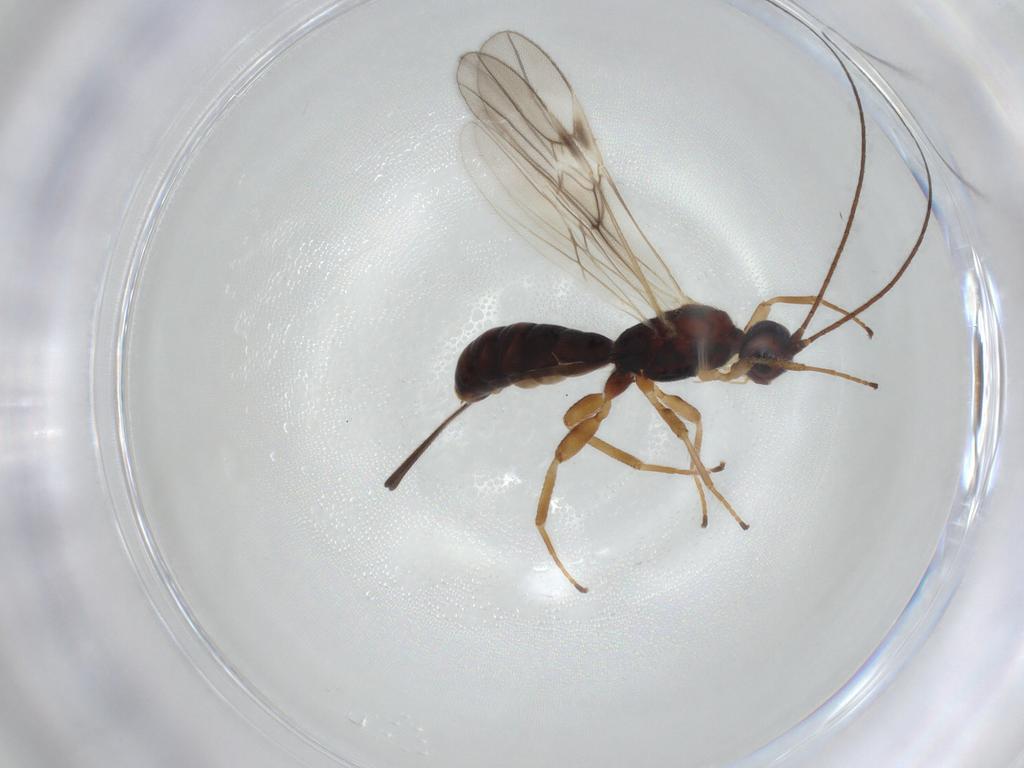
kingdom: Animalia
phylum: Arthropoda
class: Insecta
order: Hymenoptera
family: Braconidae
